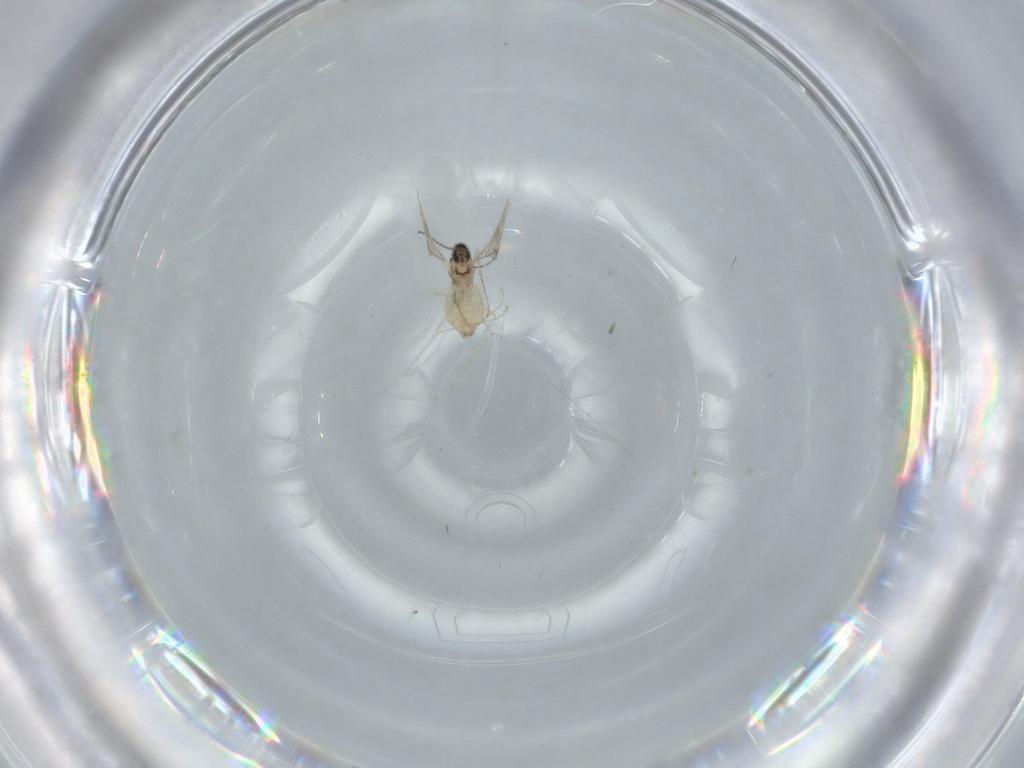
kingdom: Animalia
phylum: Arthropoda
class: Insecta
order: Diptera
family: Cecidomyiidae
